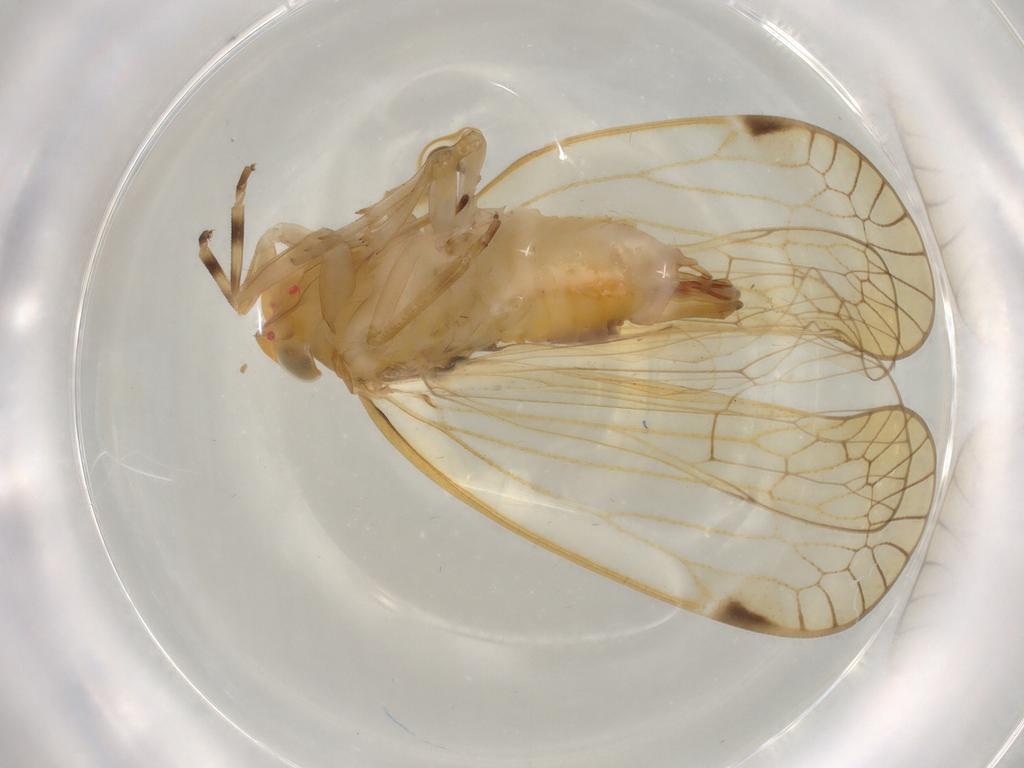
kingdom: Animalia
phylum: Arthropoda
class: Insecta
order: Hemiptera
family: Cixiidae
